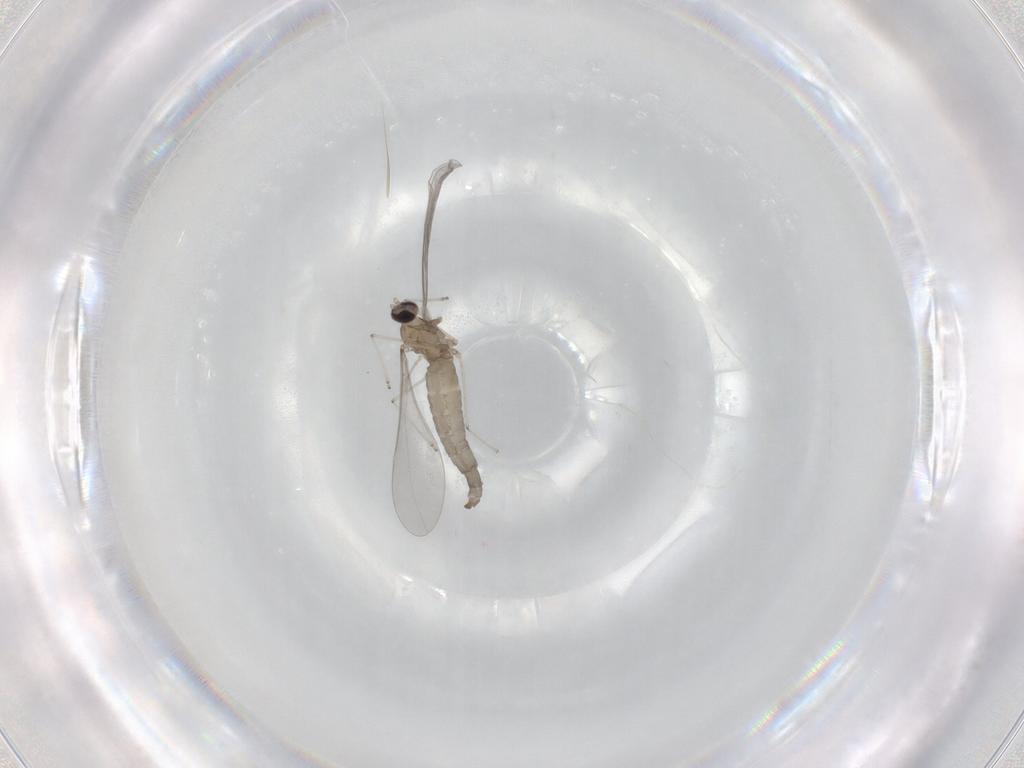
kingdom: Animalia
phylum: Arthropoda
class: Insecta
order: Diptera
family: Cecidomyiidae
